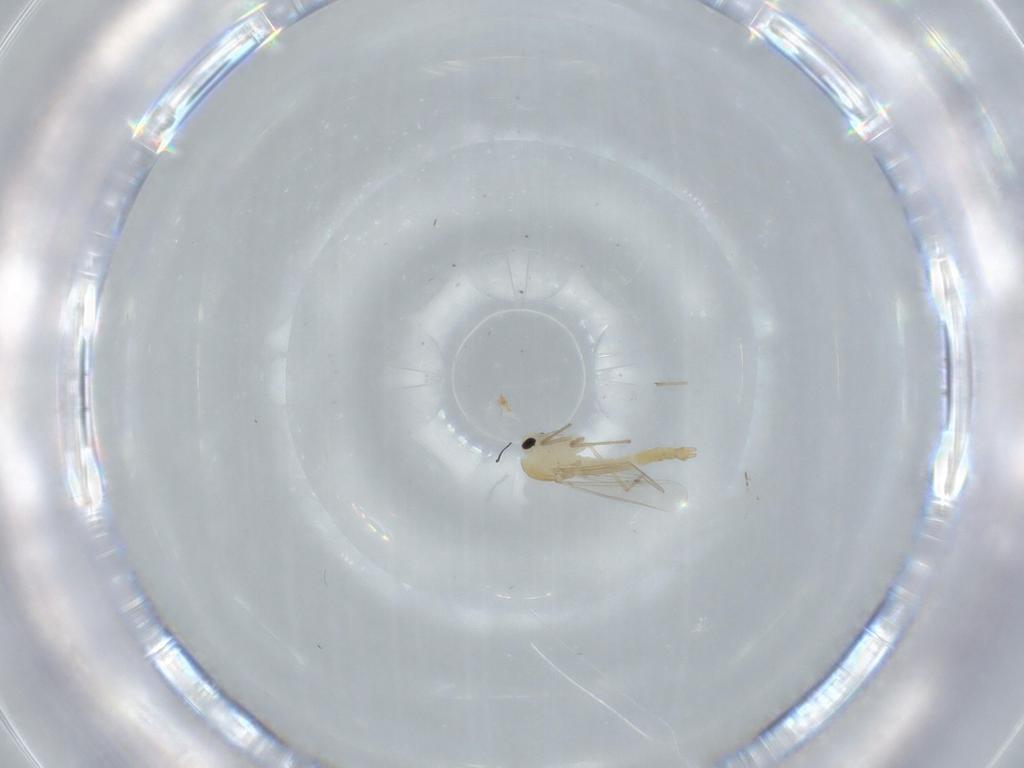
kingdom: Animalia
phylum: Arthropoda
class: Insecta
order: Diptera
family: Chironomidae
